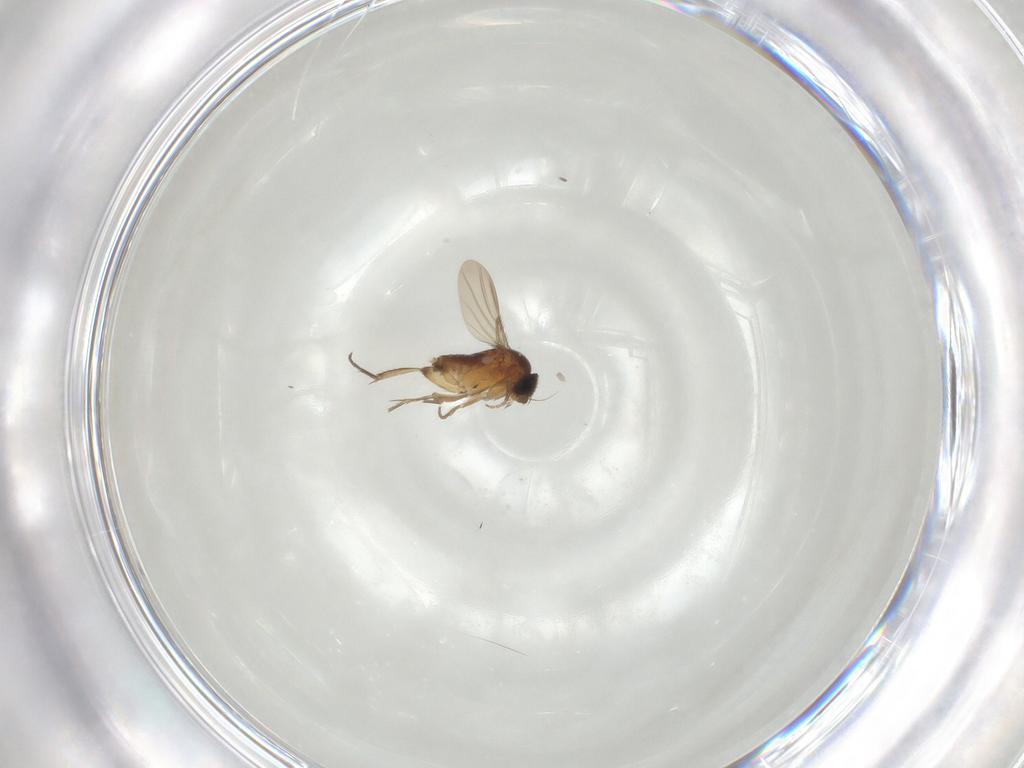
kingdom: Animalia
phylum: Arthropoda
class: Insecta
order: Diptera
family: Phoridae
